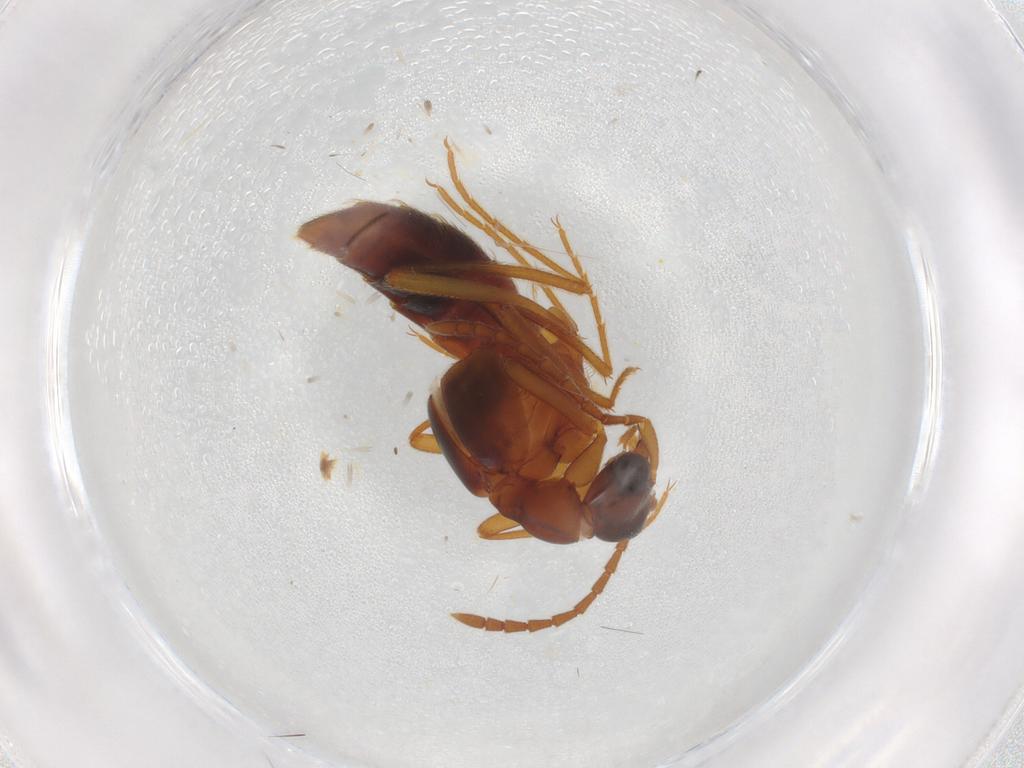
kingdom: Animalia
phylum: Arthropoda
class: Insecta
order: Coleoptera
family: Staphylinidae
